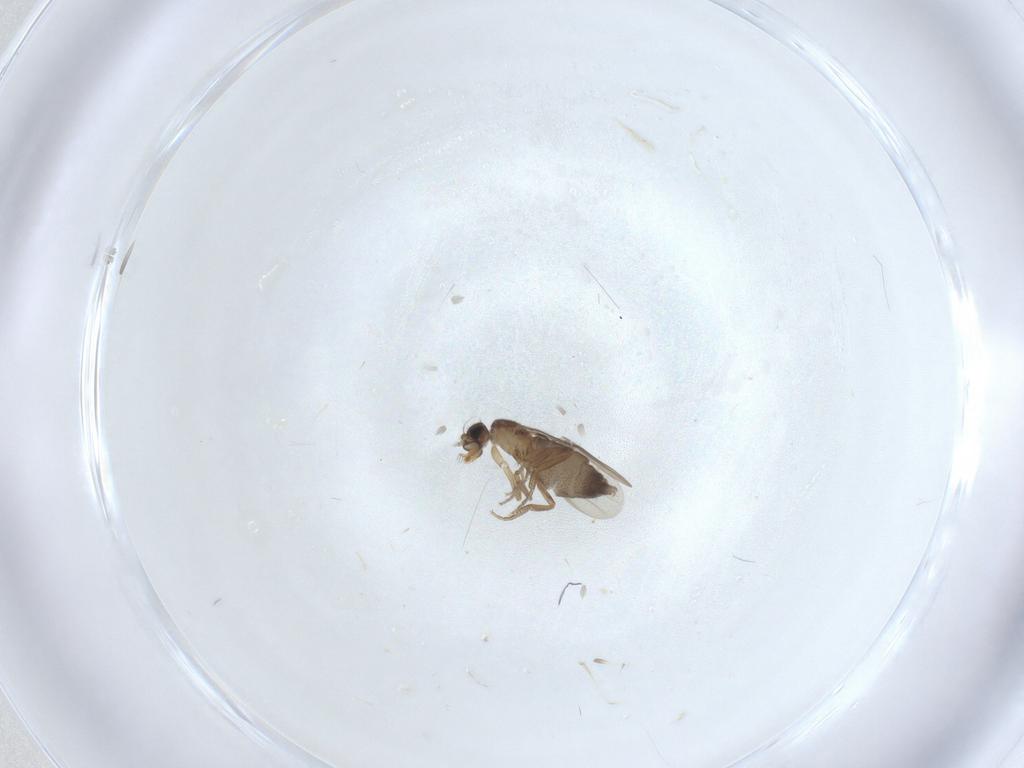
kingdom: Animalia
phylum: Arthropoda
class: Insecta
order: Diptera
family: Phoridae
